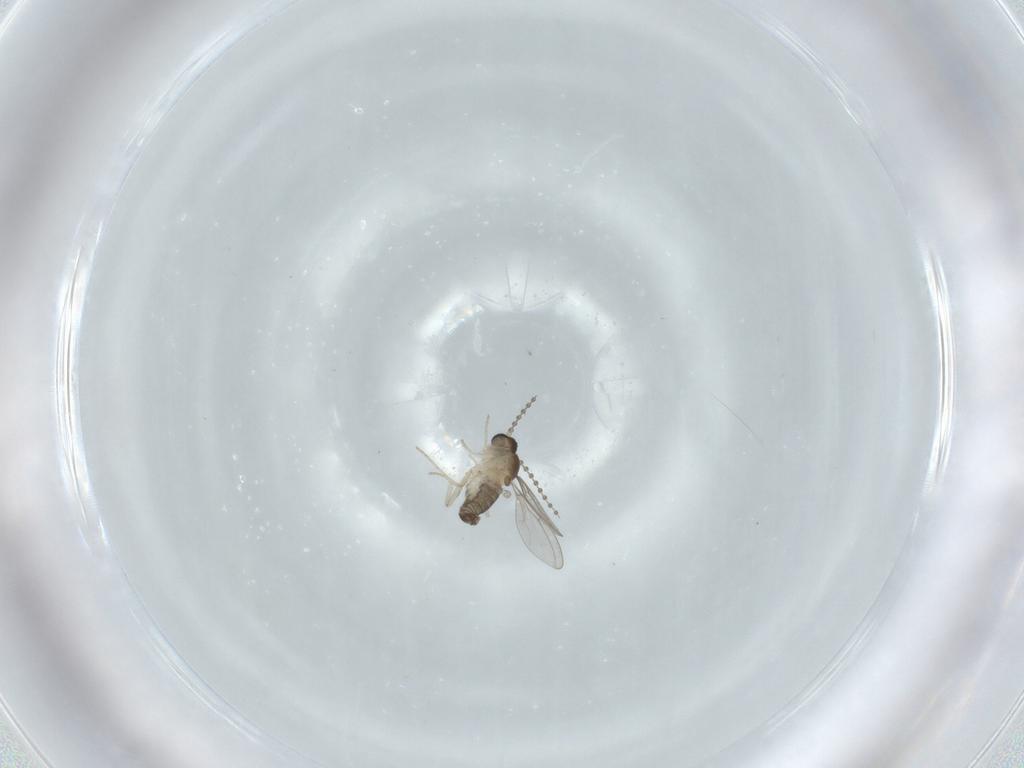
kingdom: Animalia
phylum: Arthropoda
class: Insecta
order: Diptera
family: Cecidomyiidae
